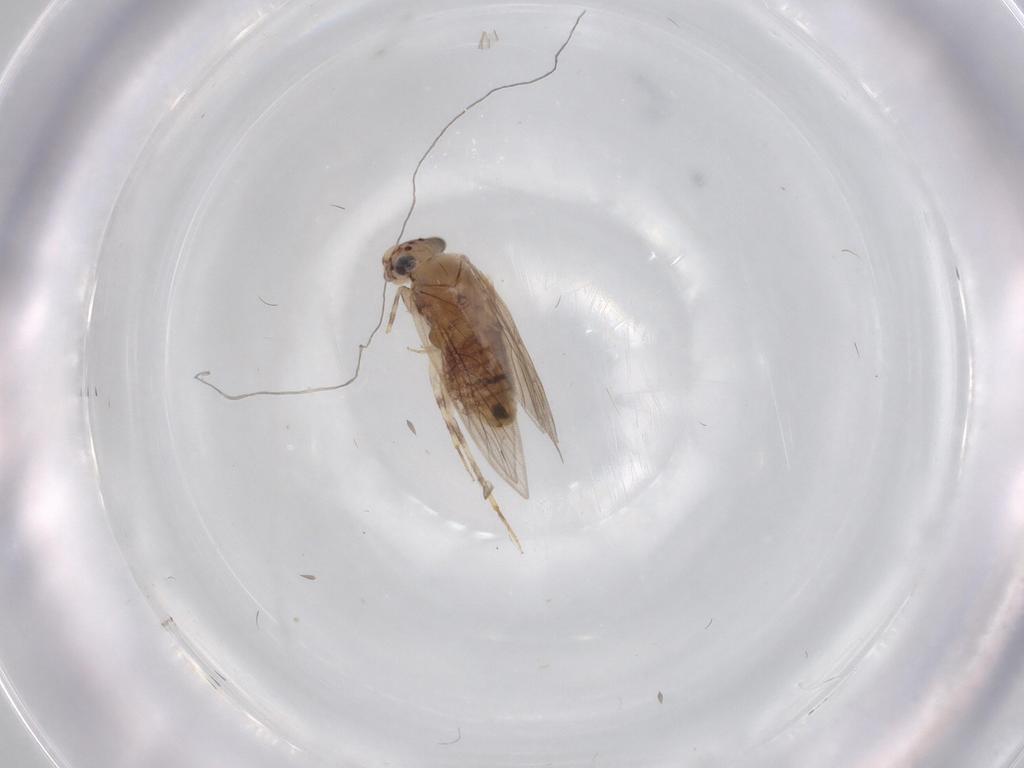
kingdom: Animalia
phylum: Arthropoda
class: Insecta
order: Psocodea
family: Lepidopsocidae
